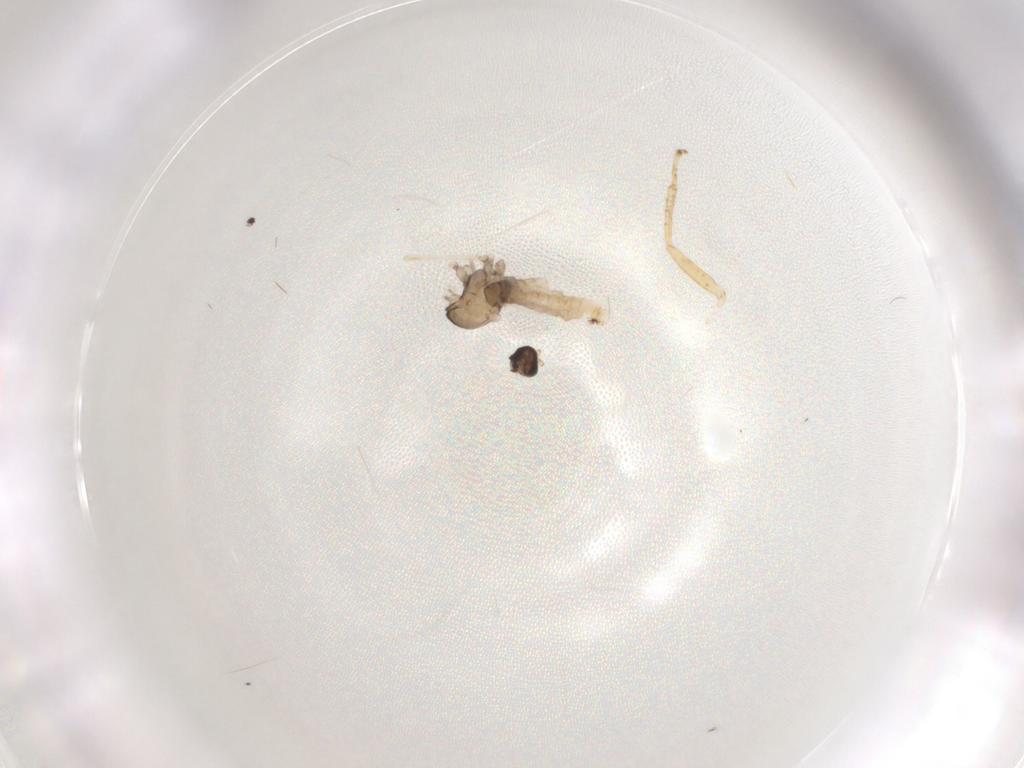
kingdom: Animalia
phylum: Arthropoda
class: Insecta
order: Diptera
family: Cecidomyiidae
